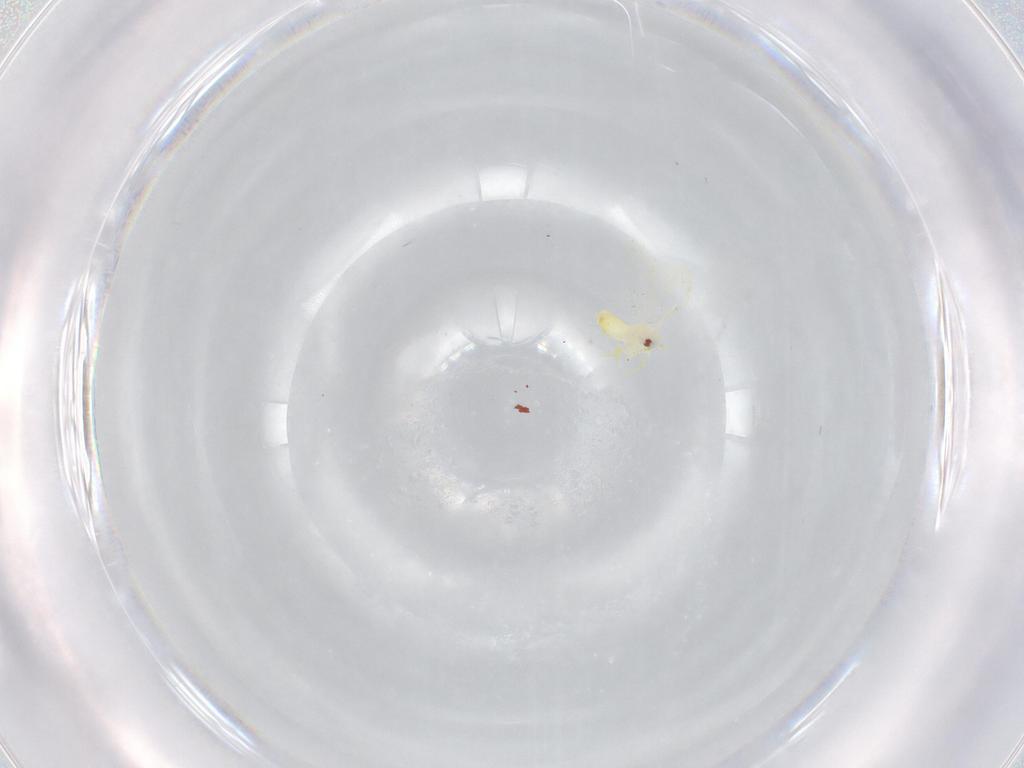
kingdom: Animalia
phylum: Arthropoda
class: Insecta
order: Hemiptera
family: Aleyrodidae
